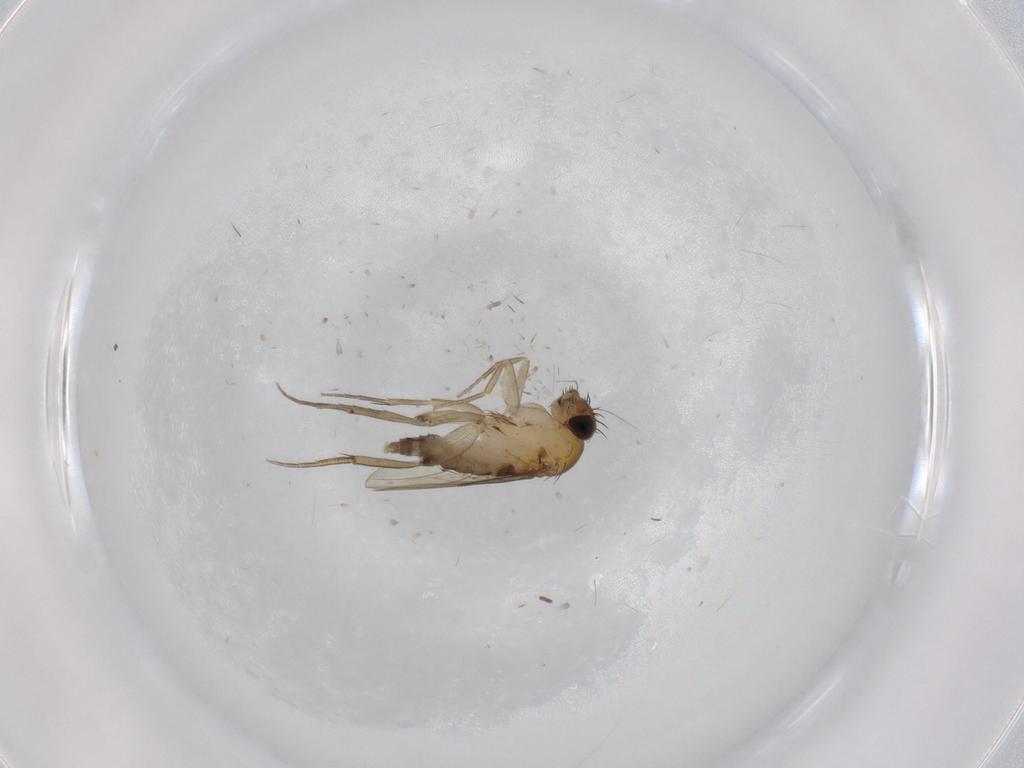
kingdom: Animalia
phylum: Arthropoda
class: Insecta
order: Diptera
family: Phoridae
